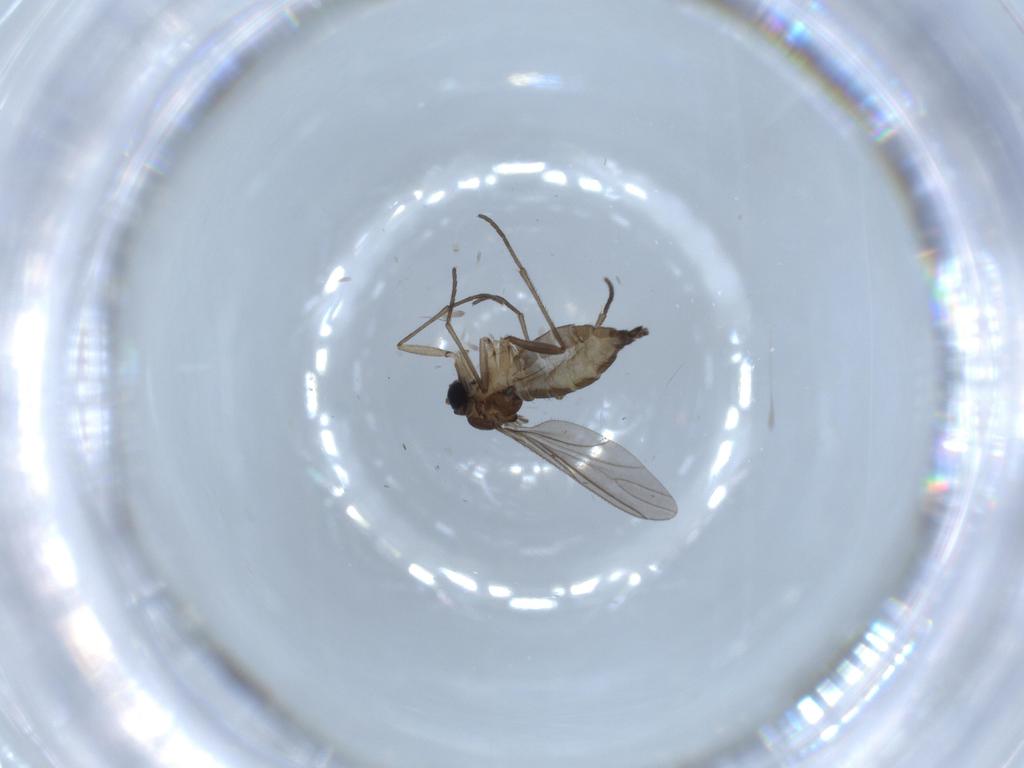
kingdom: Animalia
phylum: Arthropoda
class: Insecta
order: Diptera
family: Sciaridae
